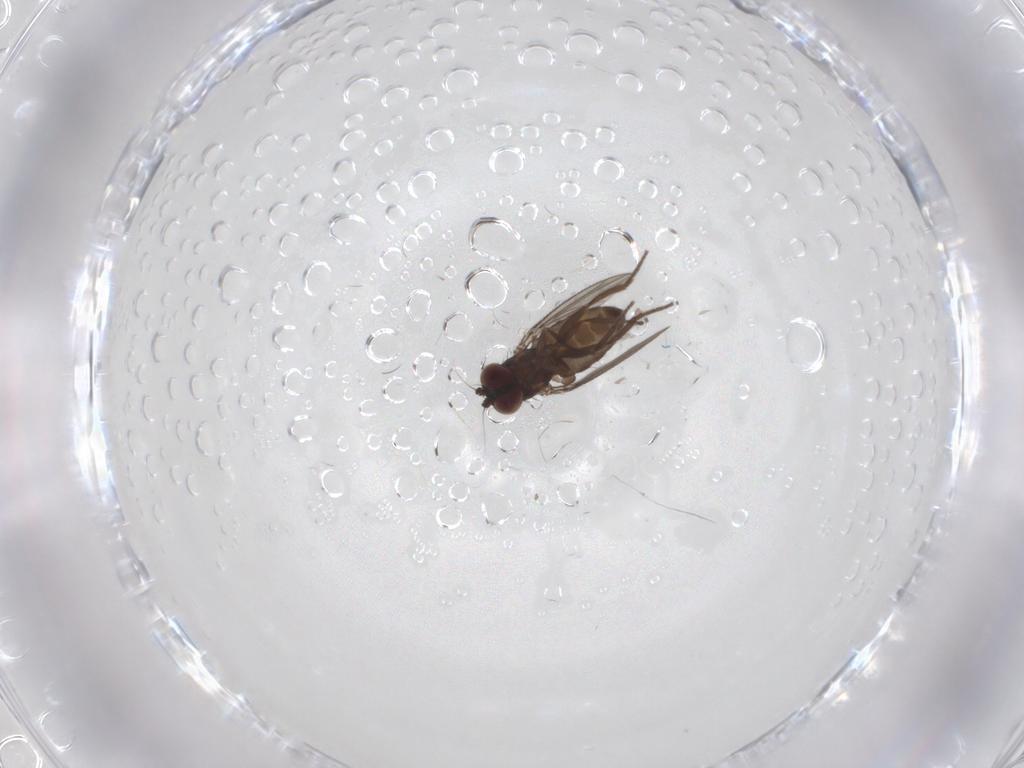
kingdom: Animalia
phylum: Arthropoda
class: Insecta
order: Diptera
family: Dolichopodidae
